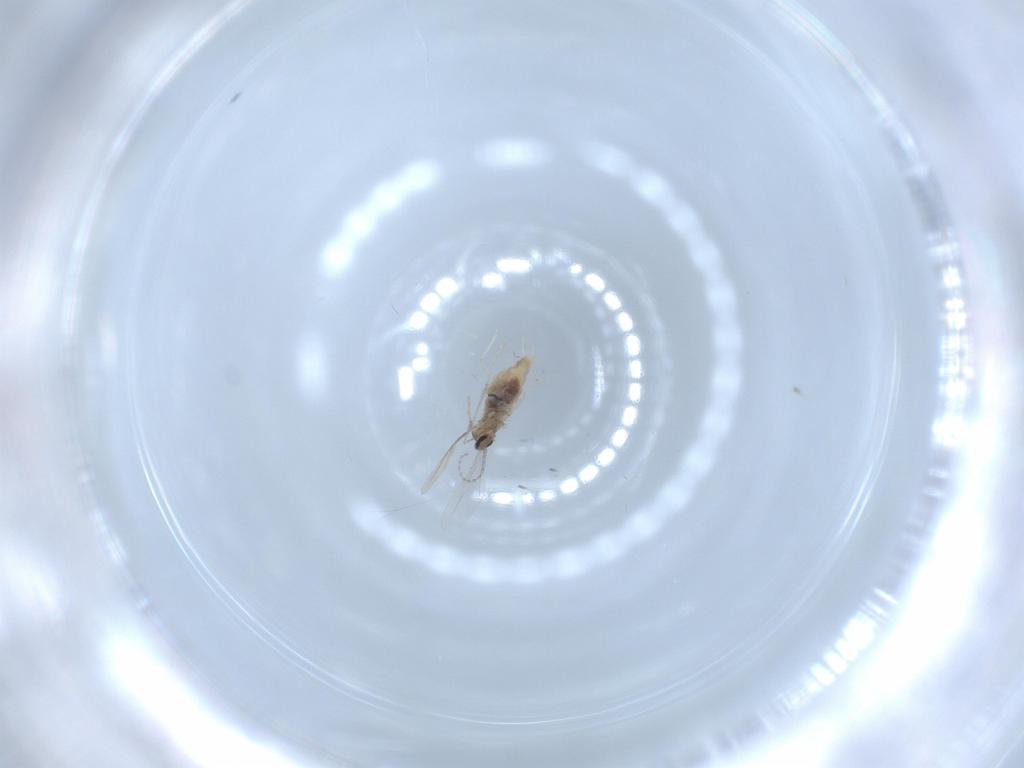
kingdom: Animalia
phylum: Arthropoda
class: Insecta
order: Diptera
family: Cecidomyiidae
